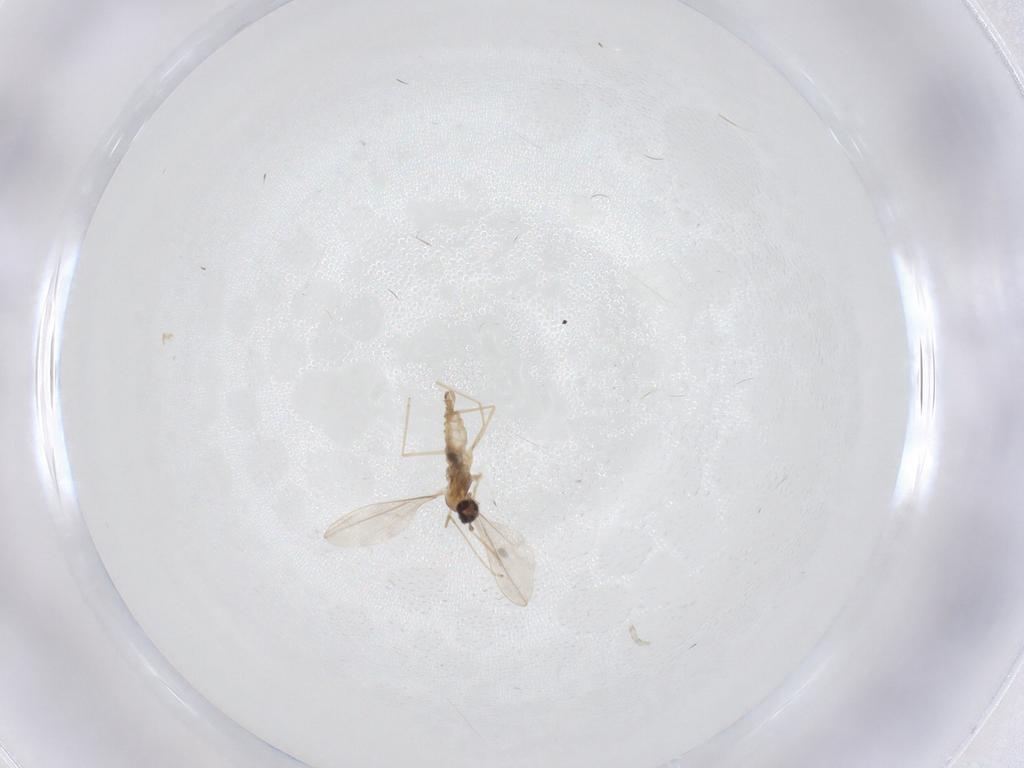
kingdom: Animalia
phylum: Arthropoda
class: Insecta
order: Diptera
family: Cecidomyiidae
